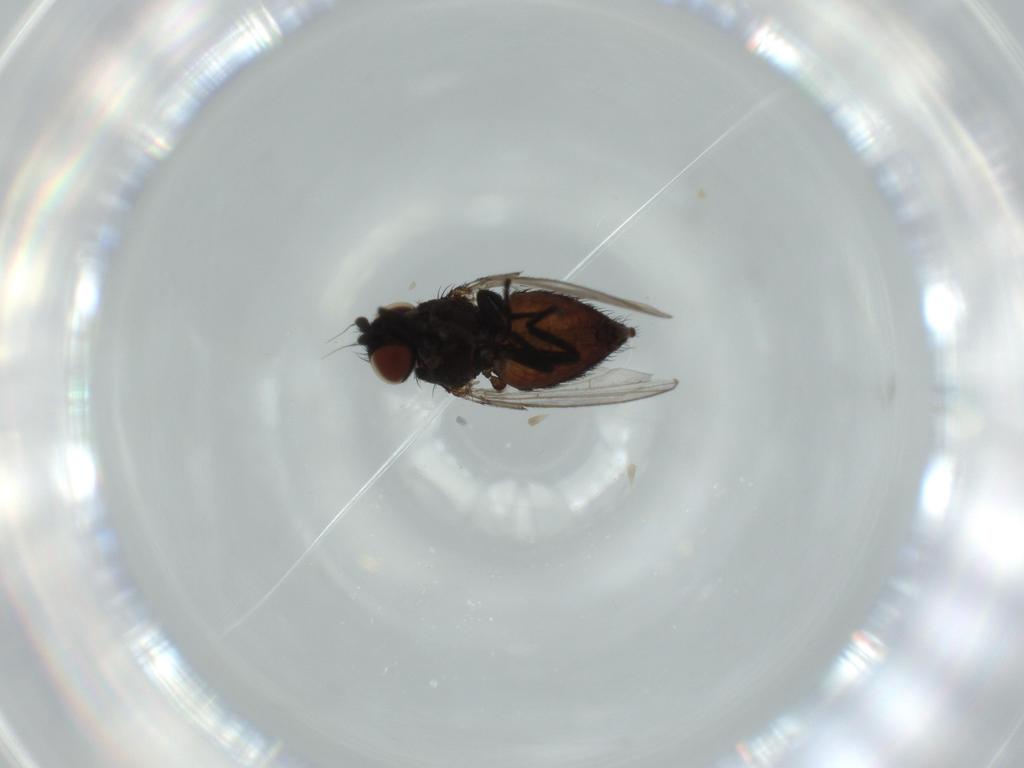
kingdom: Animalia
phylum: Arthropoda
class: Insecta
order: Diptera
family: Milichiidae
